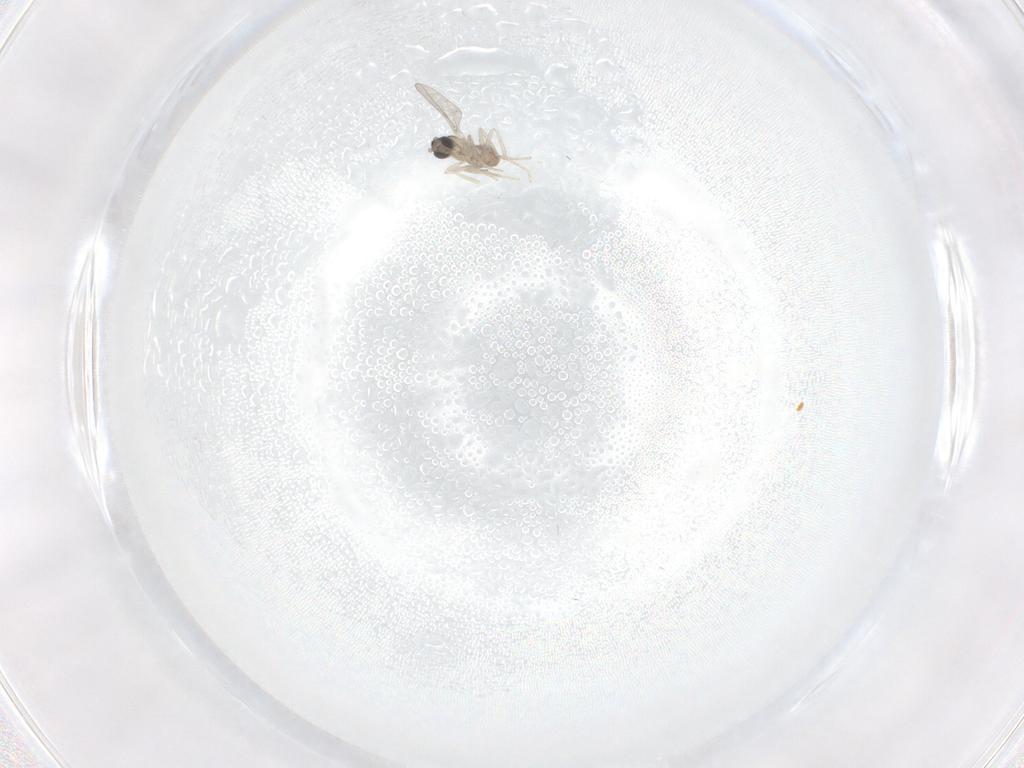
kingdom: Animalia
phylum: Arthropoda
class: Insecta
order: Diptera
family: Cecidomyiidae
